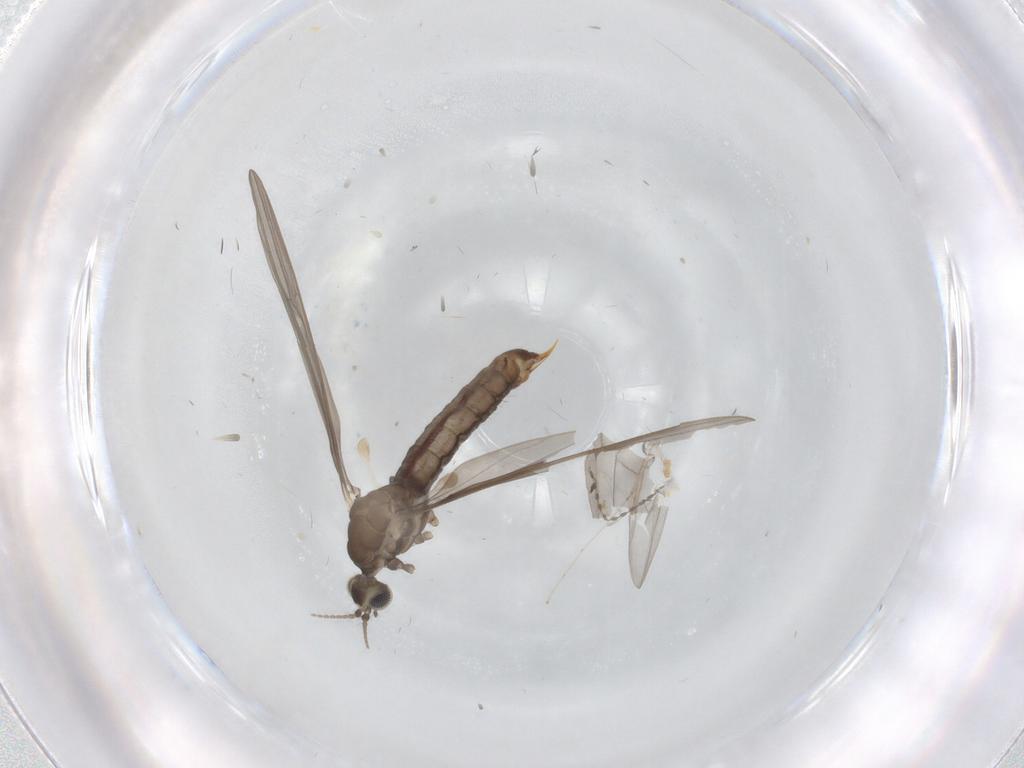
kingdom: Animalia
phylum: Arthropoda
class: Insecta
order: Diptera
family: Limoniidae
